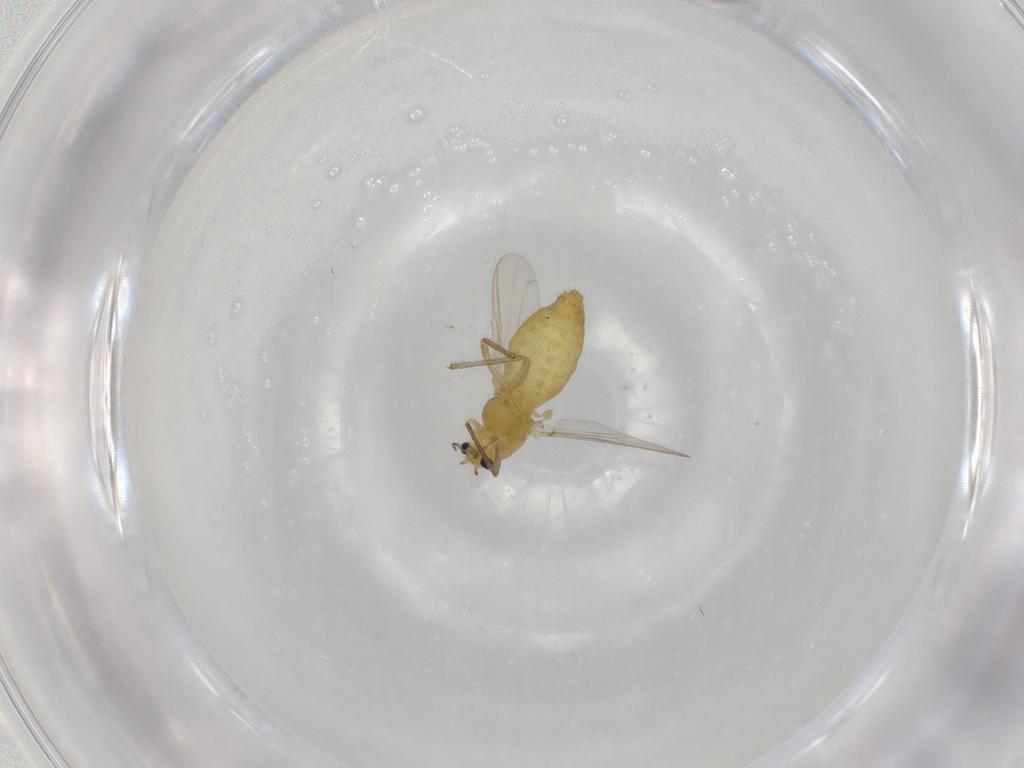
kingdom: Animalia
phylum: Arthropoda
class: Insecta
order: Diptera
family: Chironomidae
